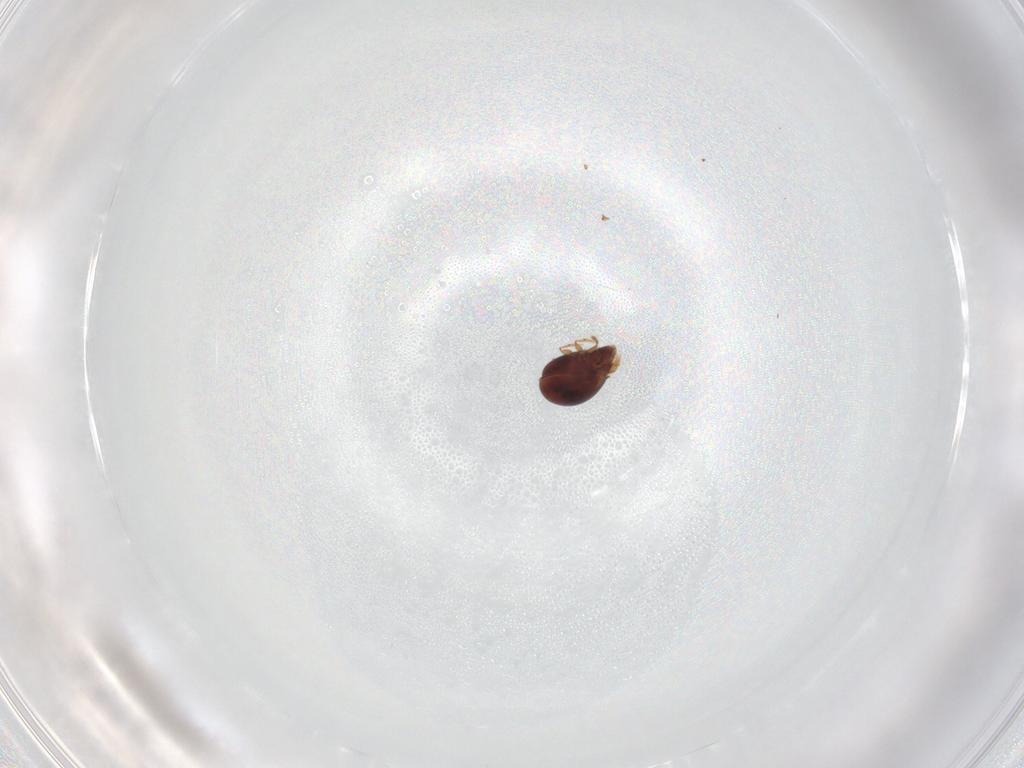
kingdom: Animalia
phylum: Arthropoda
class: Arachnida
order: Sarcoptiformes
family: Humerobatidae
